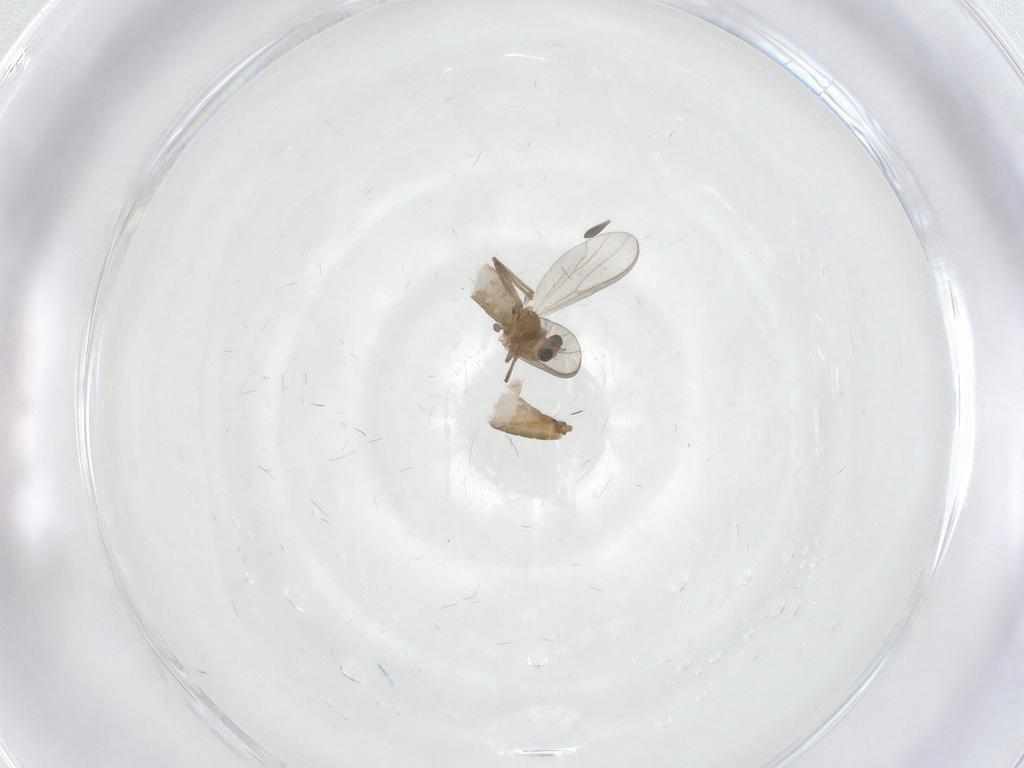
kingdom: Animalia
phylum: Arthropoda
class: Insecta
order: Diptera
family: Chironomidae
